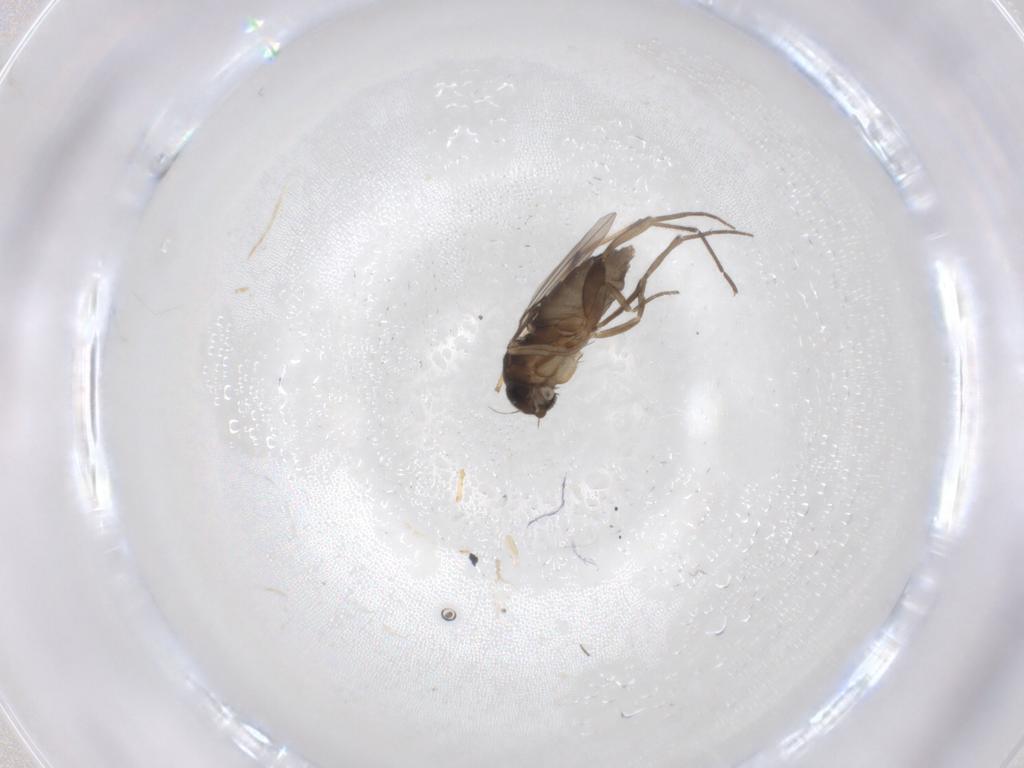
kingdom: Animalia
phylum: Arthropoda
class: Insecta
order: Diptera
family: Phoridae
